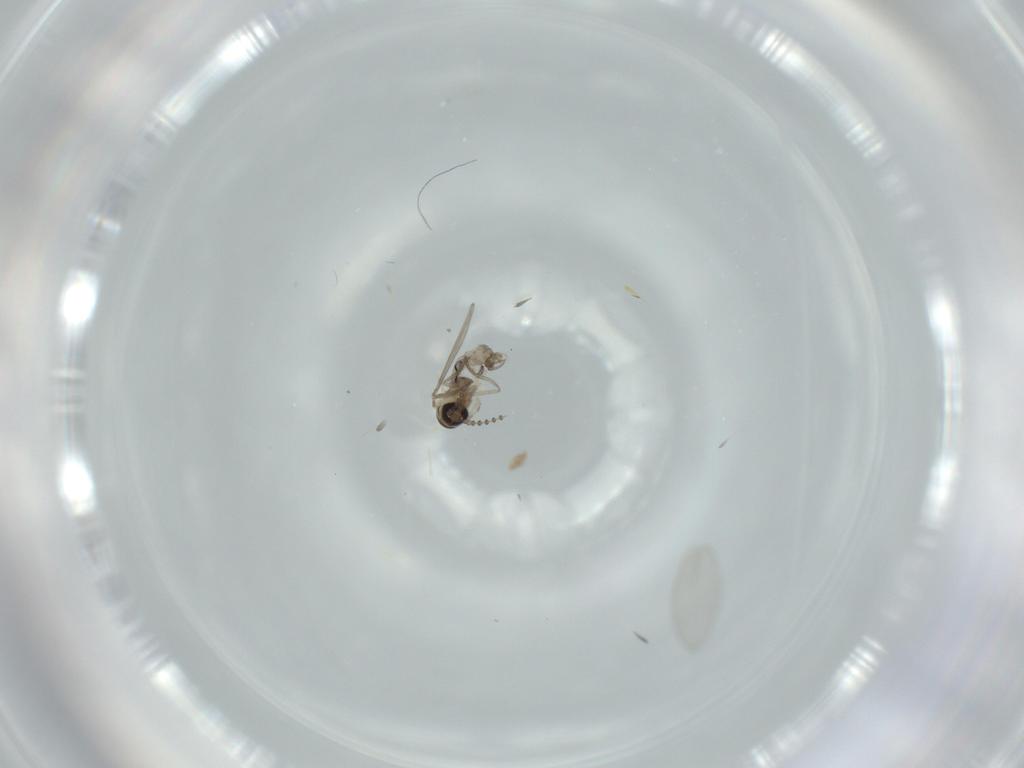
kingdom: Animalia
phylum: Arthropoda
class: Insecta
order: Diptera
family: Psychodidae
